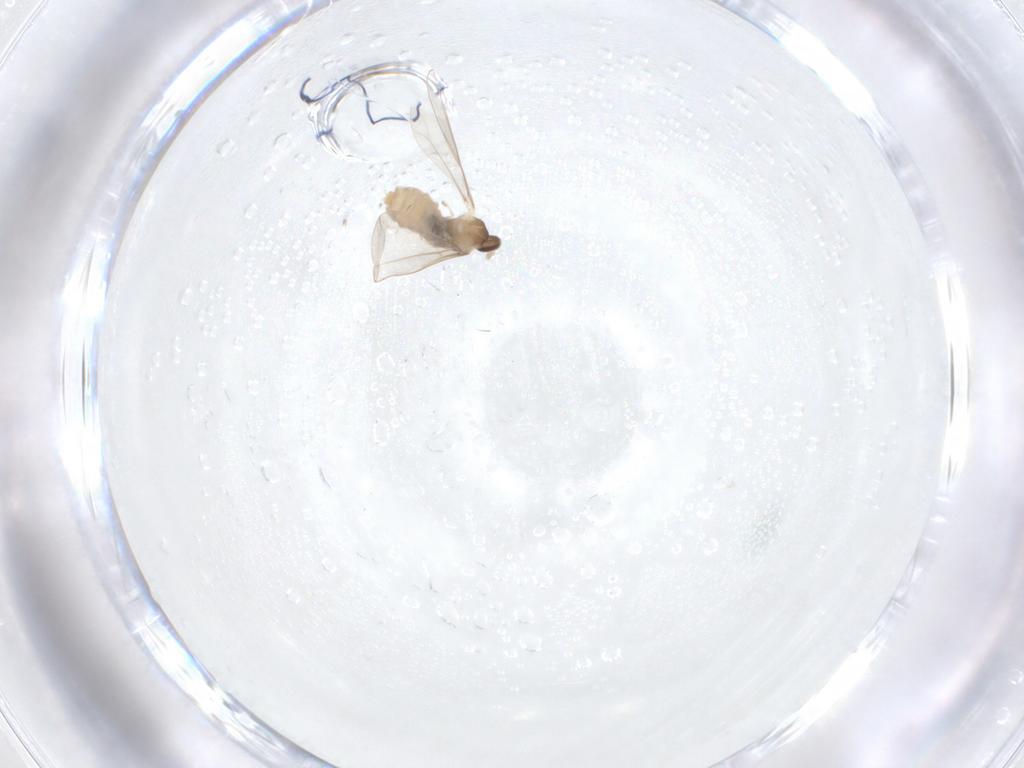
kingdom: Animalia
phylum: Arthropoda
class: Insecta
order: Diptera
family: Cecidomyiidae
